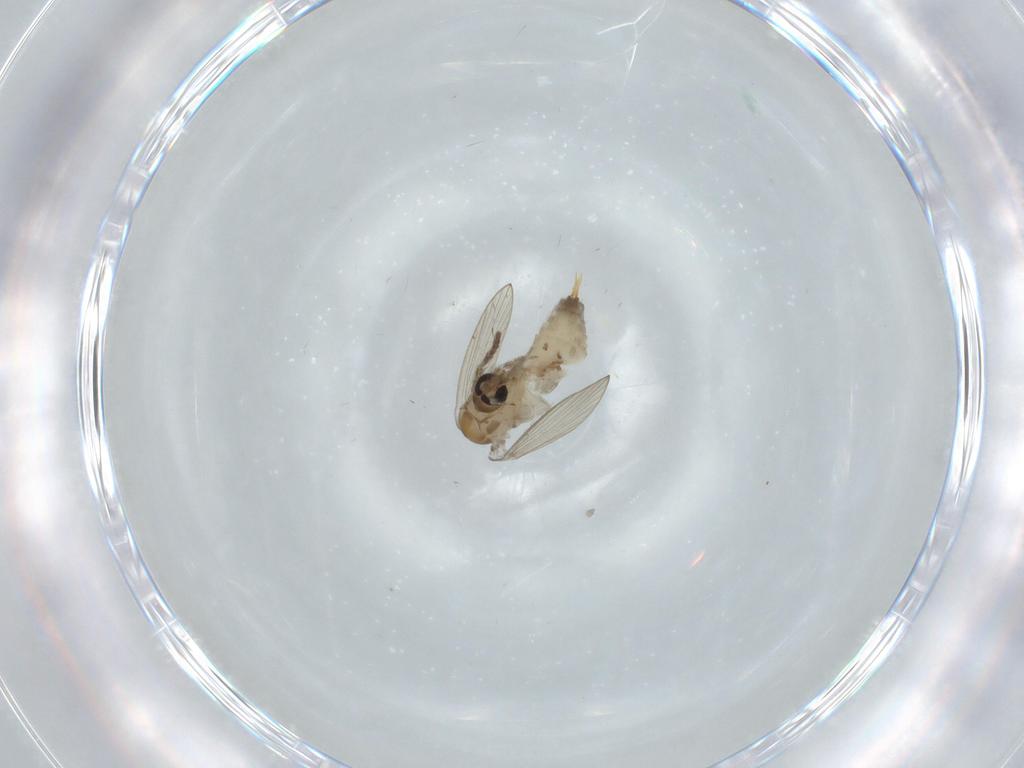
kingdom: Animalia
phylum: Arthropoda
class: Insecta
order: Diptera
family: Psychodidae
